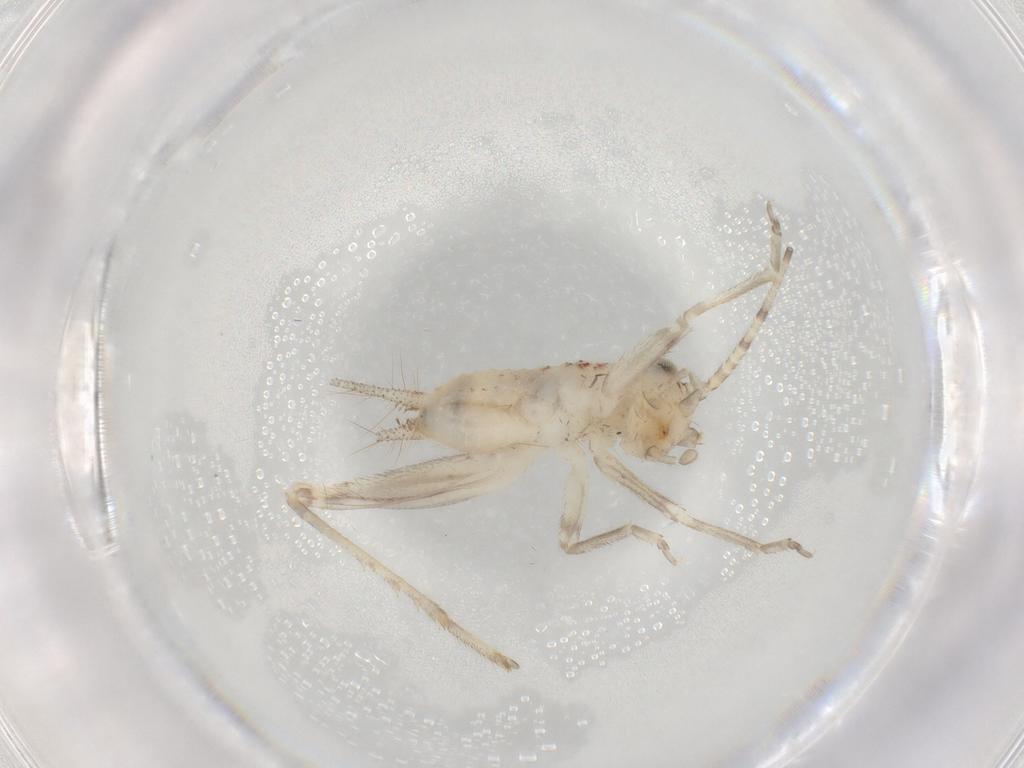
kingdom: Animalia
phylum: Arthropoda
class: Insecta
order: Orthoptera
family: Trigonidiidae
